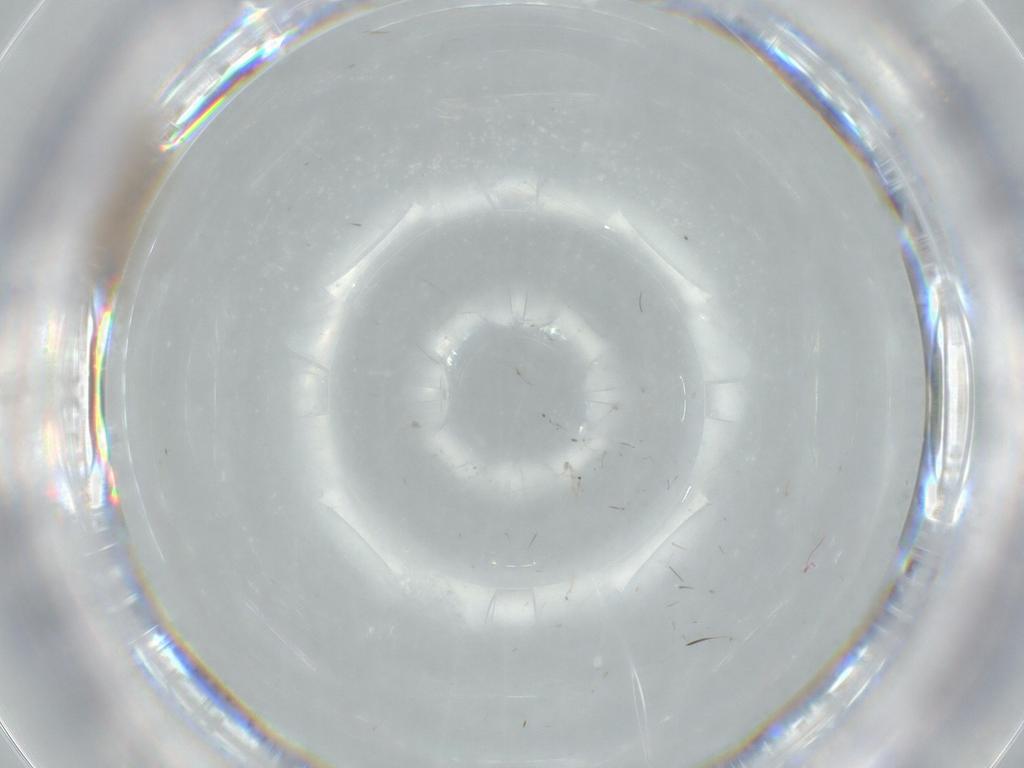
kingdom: Animalia
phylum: Arthropoda
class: Insecta
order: Hemiptera
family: Enicocephalidae
